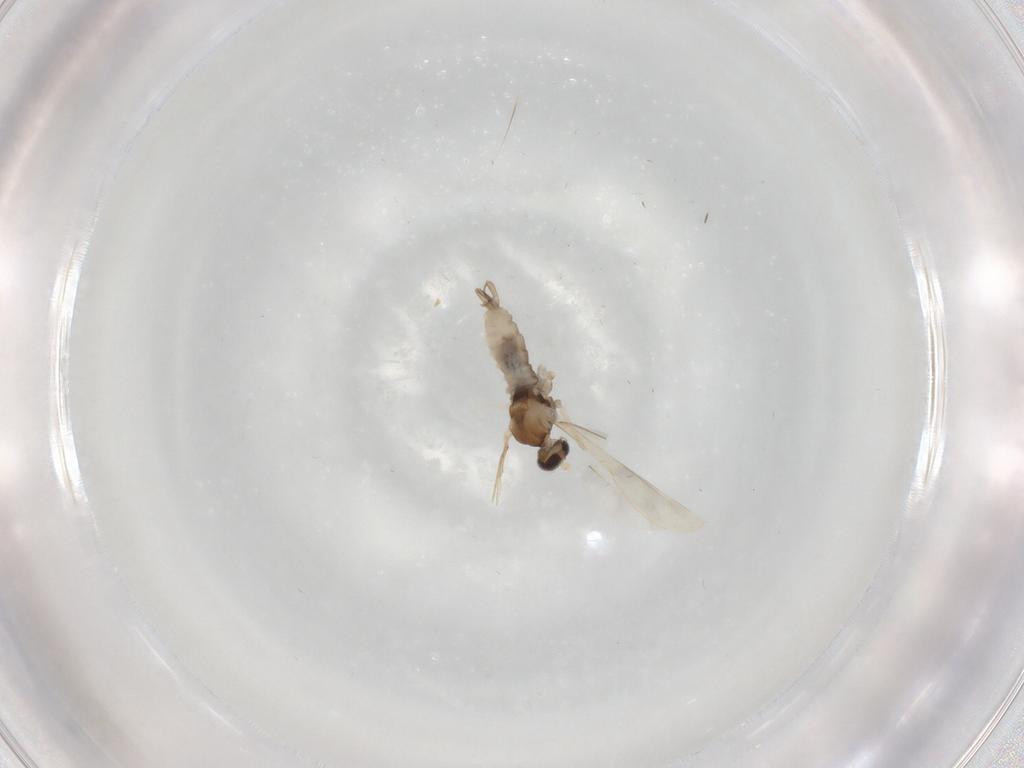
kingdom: Animalia
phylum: Arthropoda
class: Insecta
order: Diptera
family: Cecidomyiidae
